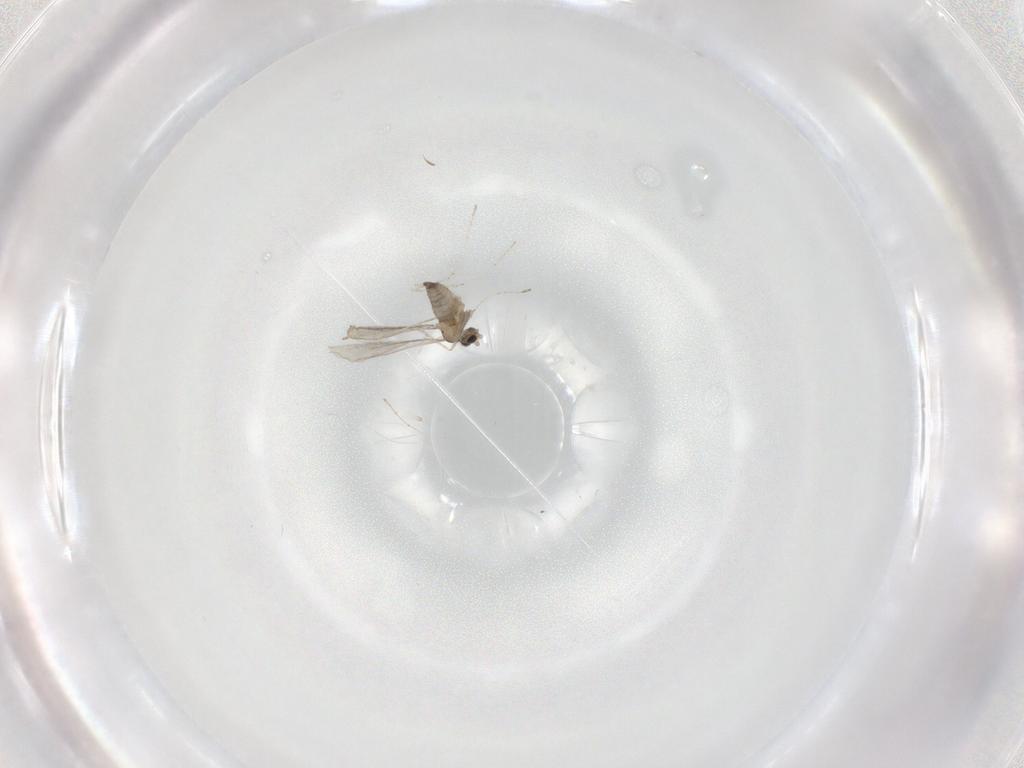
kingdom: Animalia
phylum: Arthropoda
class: Insecta
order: Diptera
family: Cecidomyiidae
